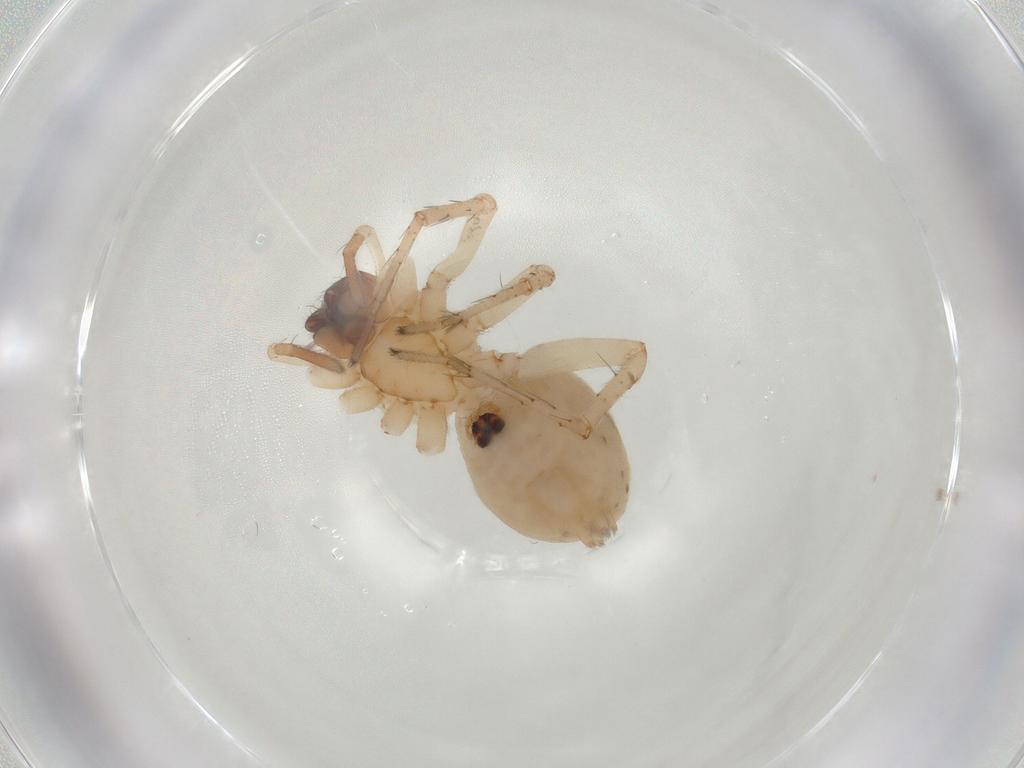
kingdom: Animalia
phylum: Arthropoda
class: Arachnida
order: Araneae
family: Anyphaenidae
